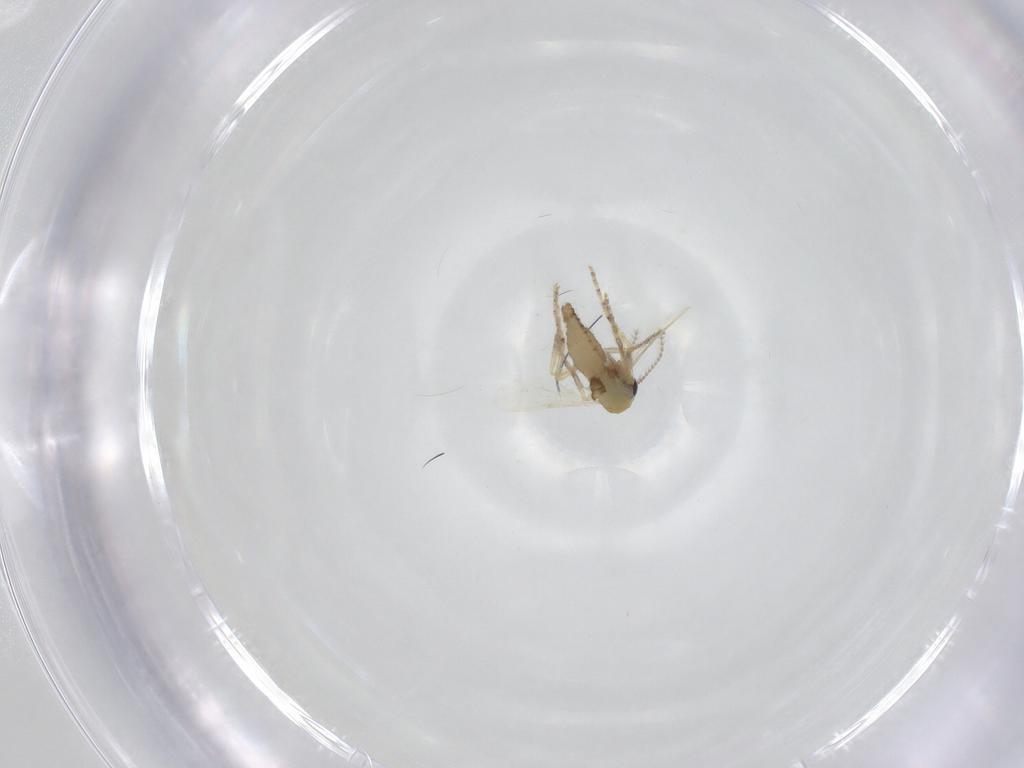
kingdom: Animalia
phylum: Arthropoda
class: Insecta
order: Diptera
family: Ceratopogonidae
